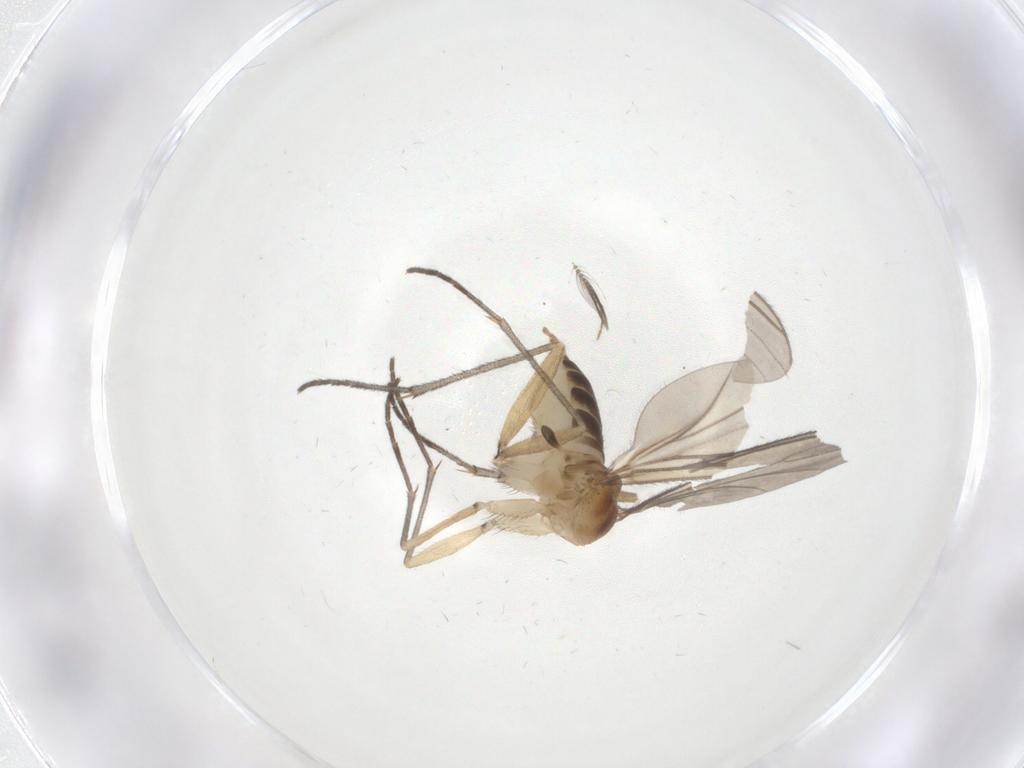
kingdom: Animalia
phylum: Arthropoda
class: Insecta
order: Diptera
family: Sciaridae
